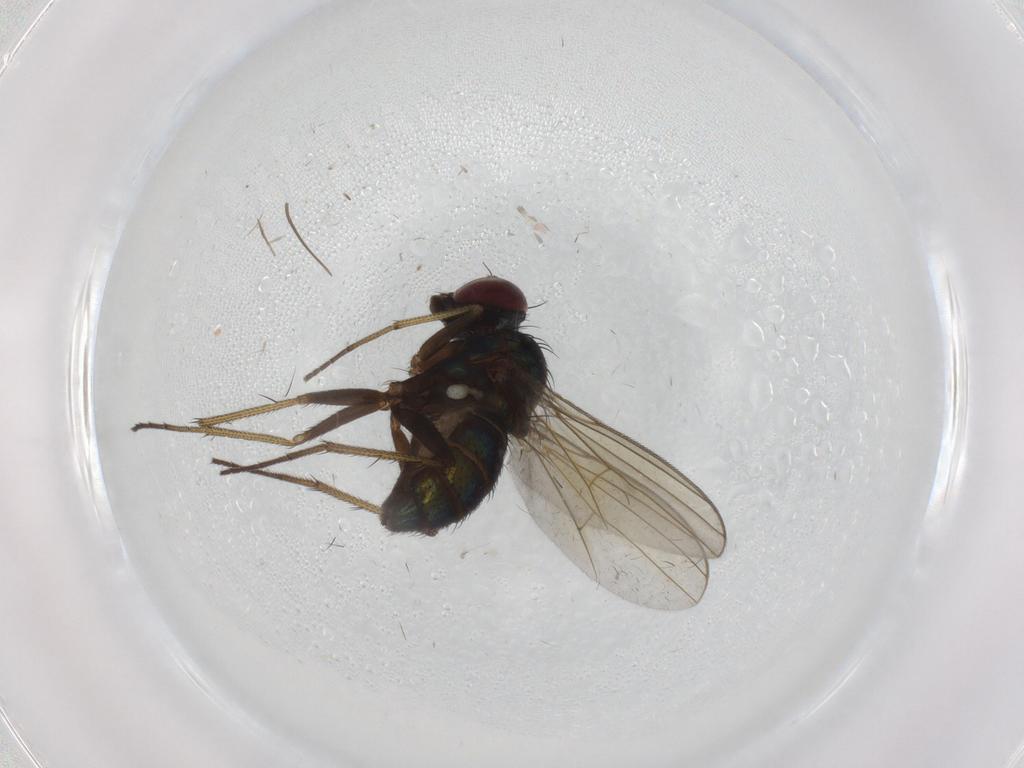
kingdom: Animalia
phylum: Arthropoda
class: Insecta
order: Diptera
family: Dolichopodidae
